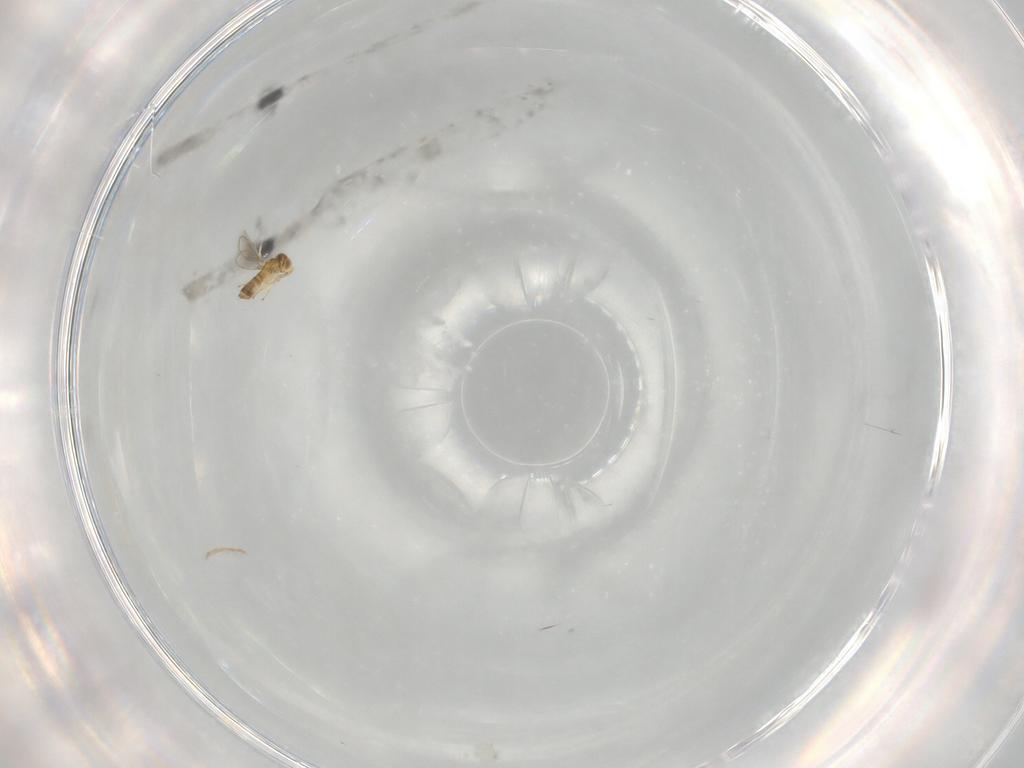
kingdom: Animalia
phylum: Arthropoda
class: Insecta
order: Hymenoptera
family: Aphelinidae
